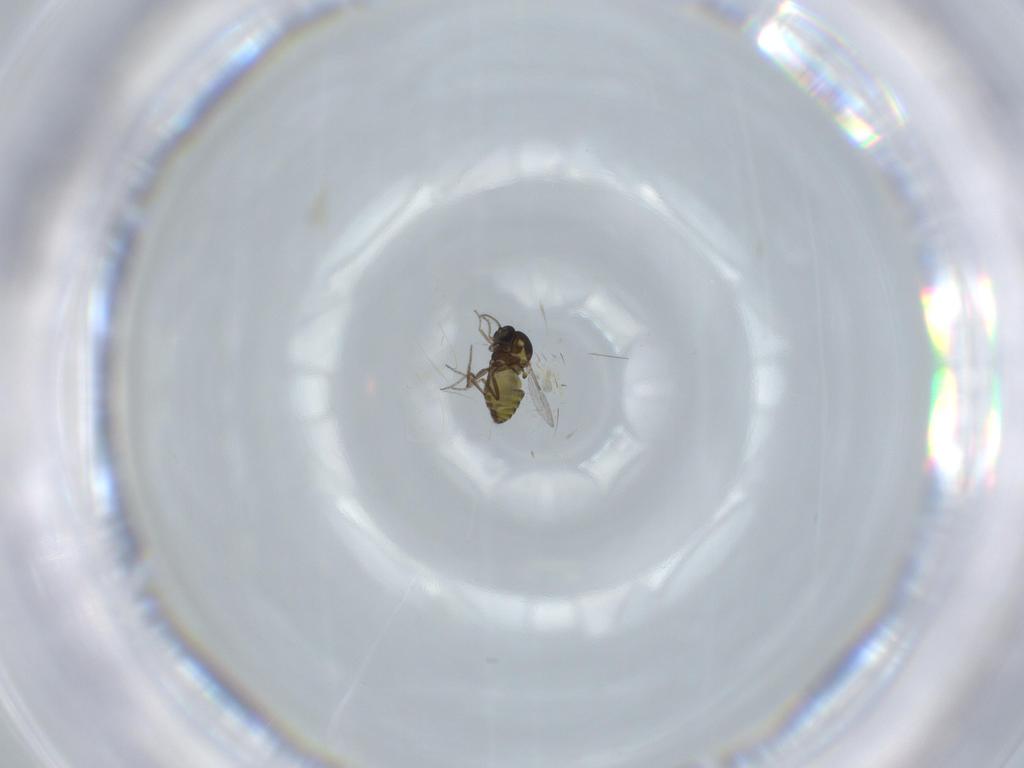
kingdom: Animalia
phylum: Arthropoda
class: Insecta
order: Diptera
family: Ceratopogonidae
